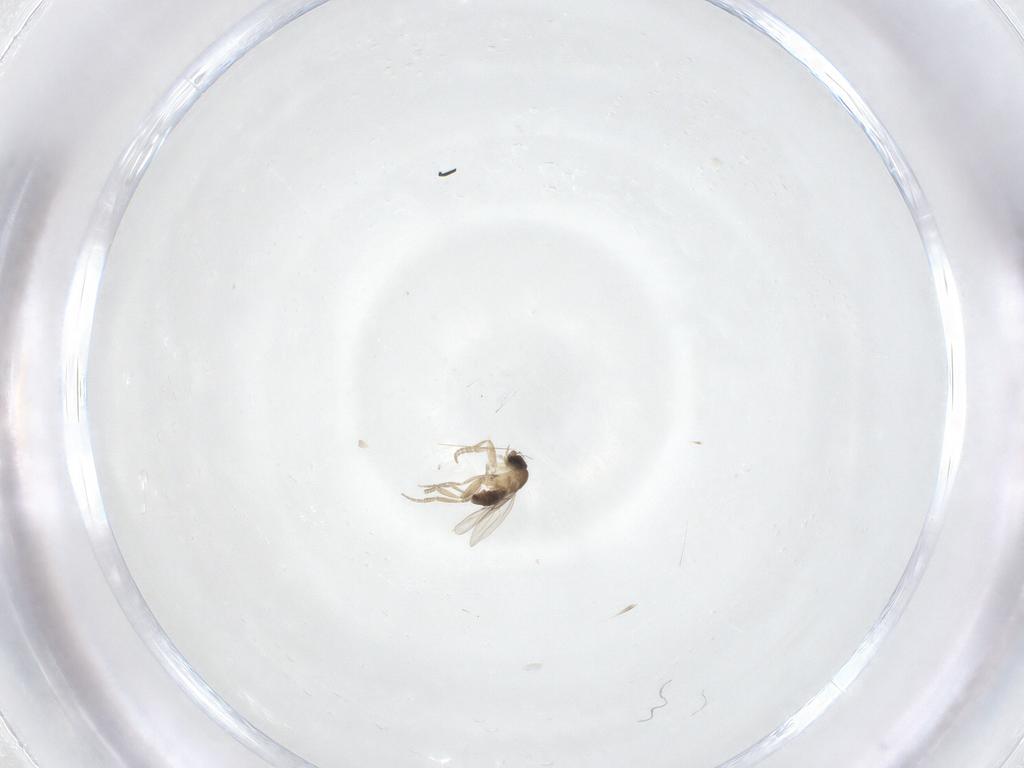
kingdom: Animalia
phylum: Arthropoda
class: Insecta
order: Diptera
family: Phoridae
